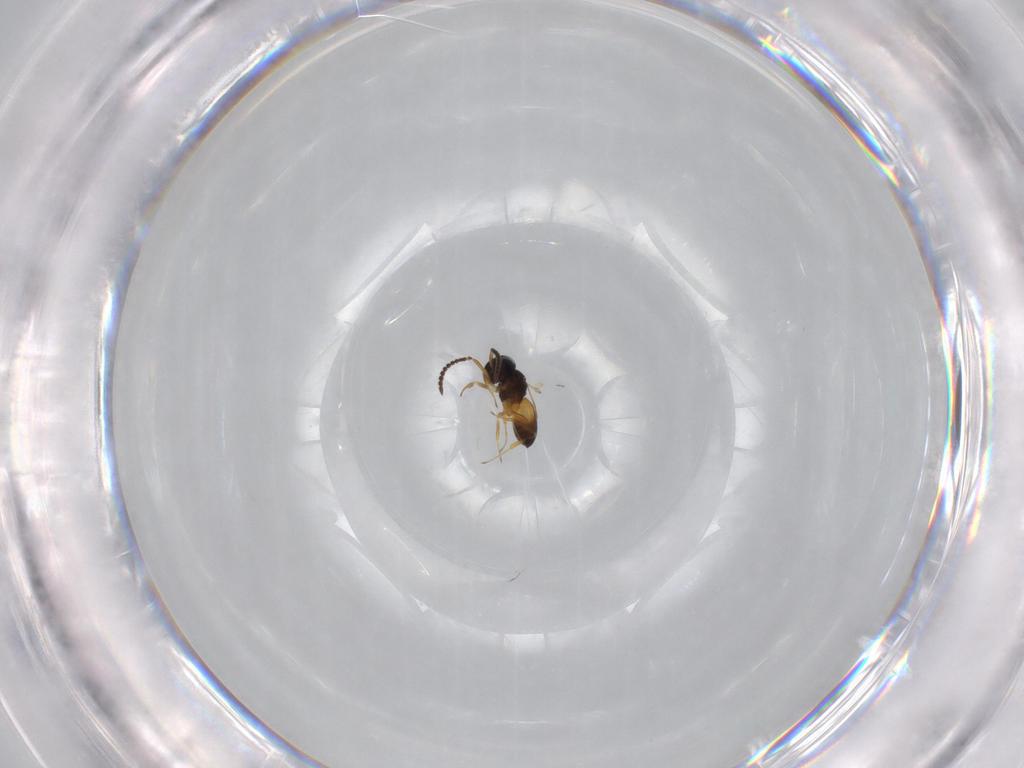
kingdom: Animalia
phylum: Arthropoda
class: Insecta
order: Hymenoptera
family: Scelionidae
